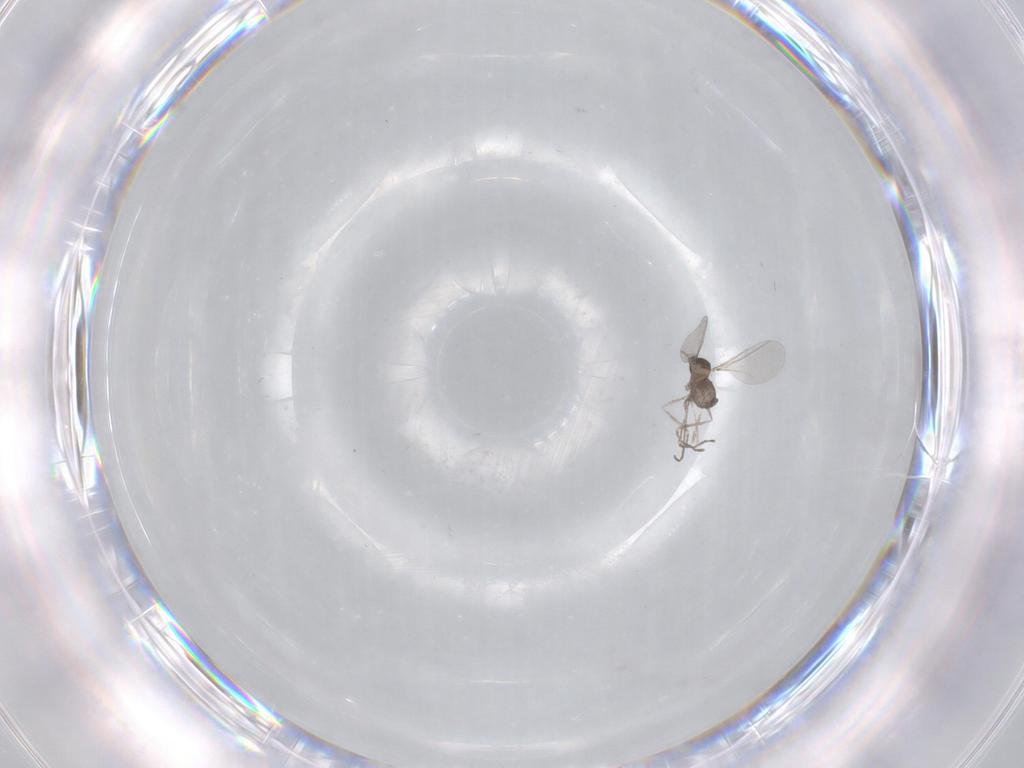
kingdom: Animalia
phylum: Arthropoda
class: Insecta
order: Diptera
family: Cecidomyiidae
